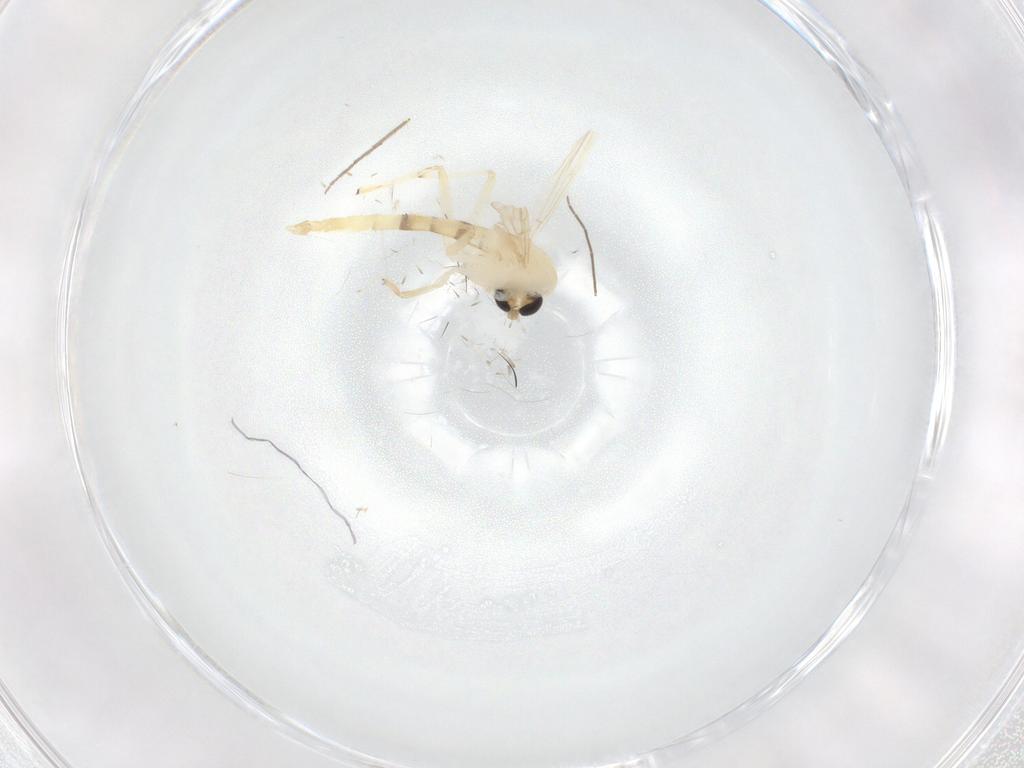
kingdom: Animalia
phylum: Arthropoda
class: Insecta
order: Diptera
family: Chironomidae
